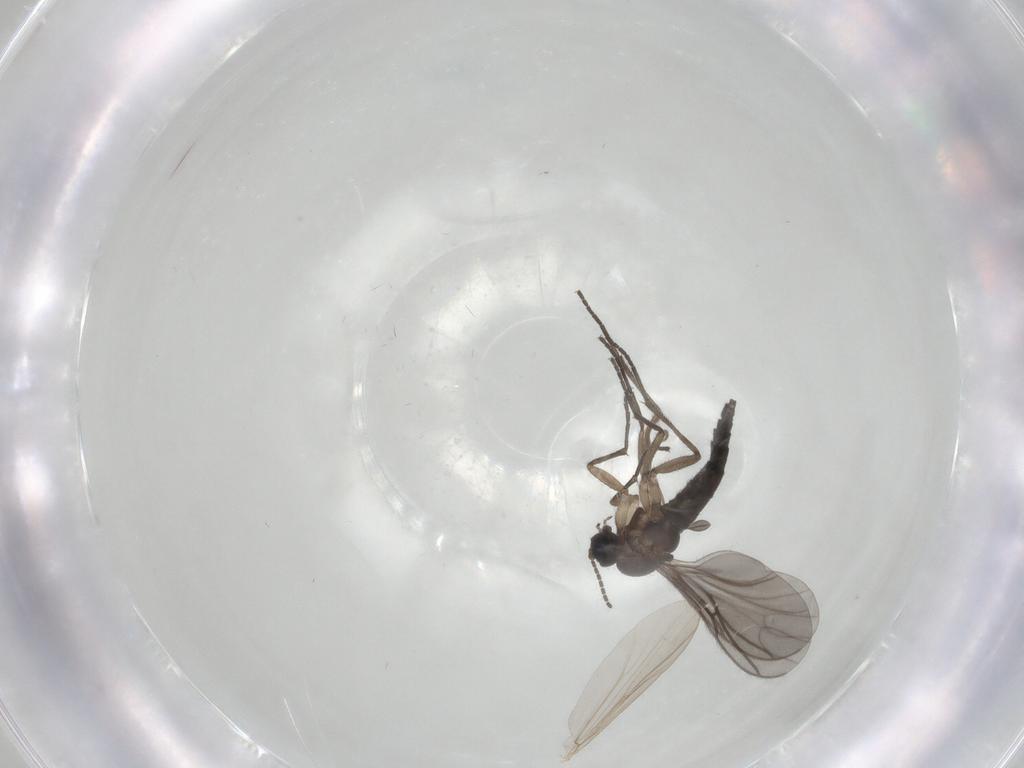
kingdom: Animalia
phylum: Arthropoda
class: Insecta
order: Diptera
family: Sciaridae
